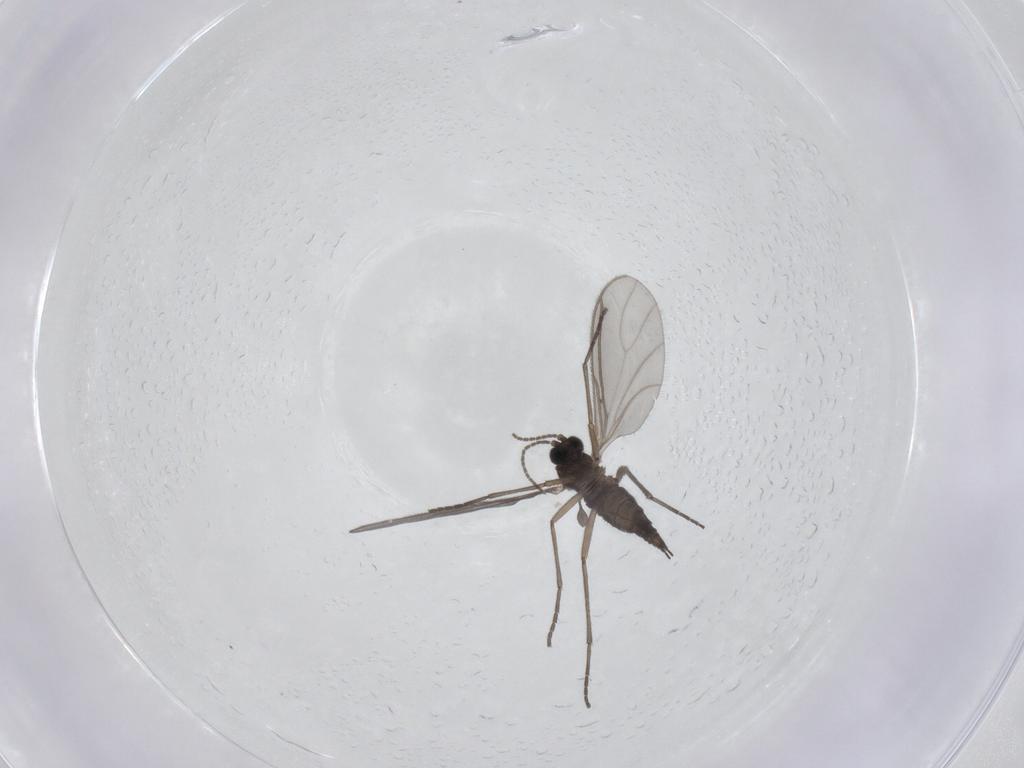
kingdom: Animalia
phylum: Arthropoda
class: Insecta
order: Diptera
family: Sciaridae
